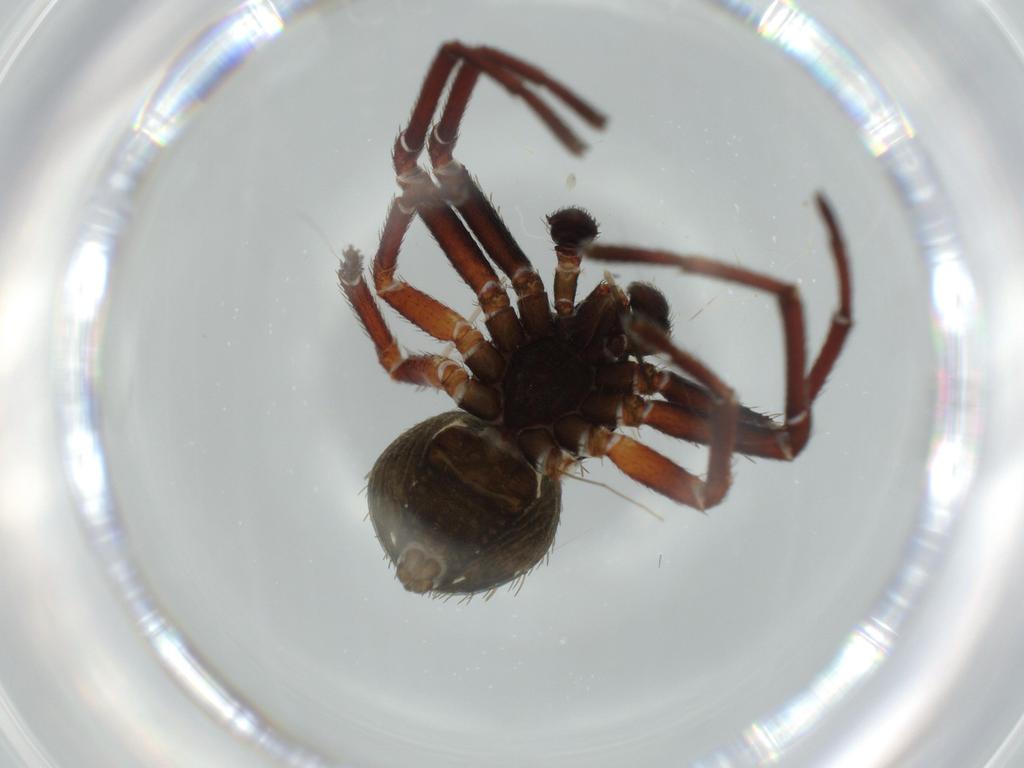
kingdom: Animalia
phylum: Arthropoda
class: Arachnida
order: Araneae
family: Thomisidae
